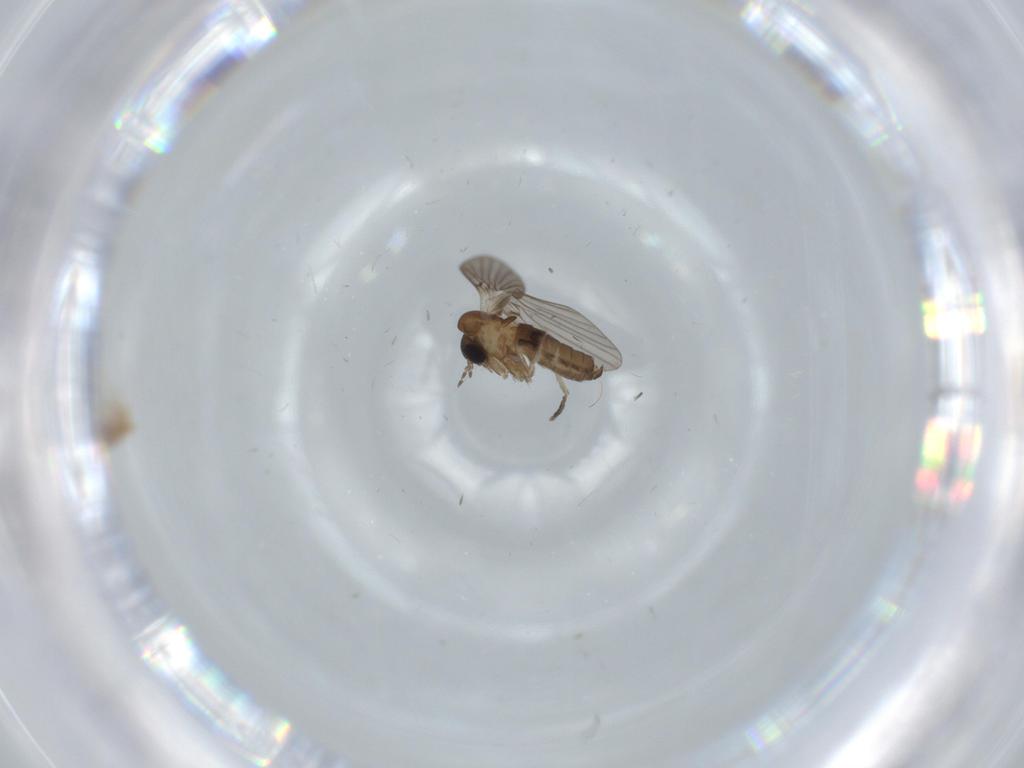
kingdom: Animalia
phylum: Arthropoda
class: Insecta
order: Diptera
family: Psychodidae
